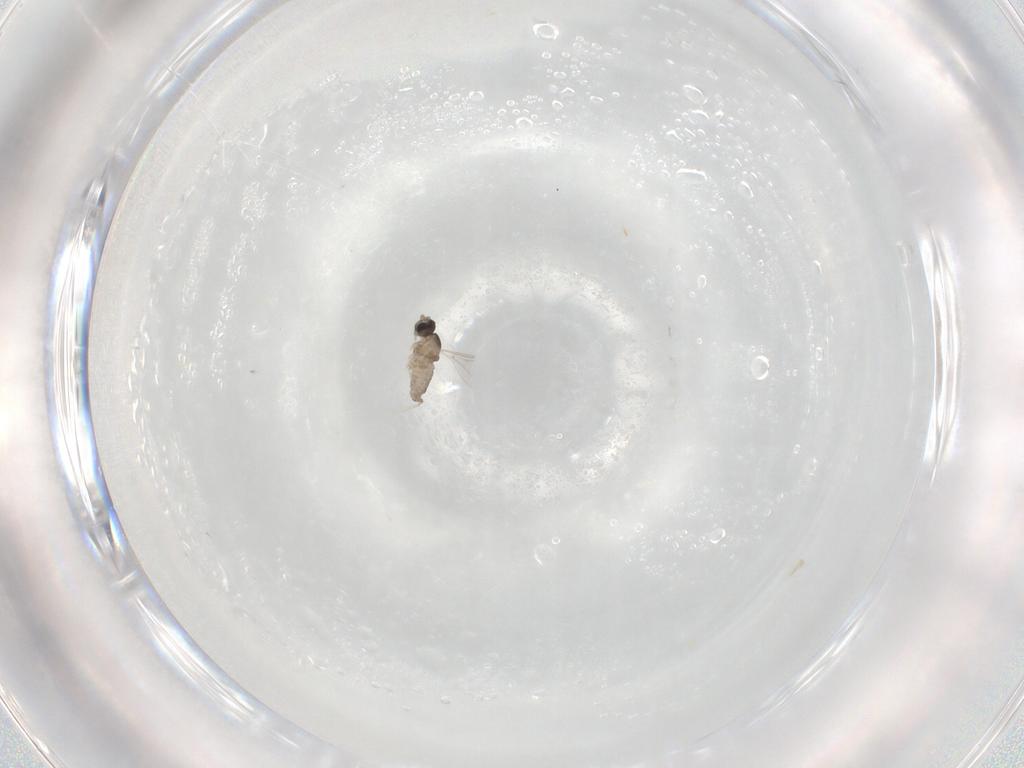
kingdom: Animalia
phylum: Arthropoda
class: Insecta
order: Diptera
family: Cecidomyiidae
